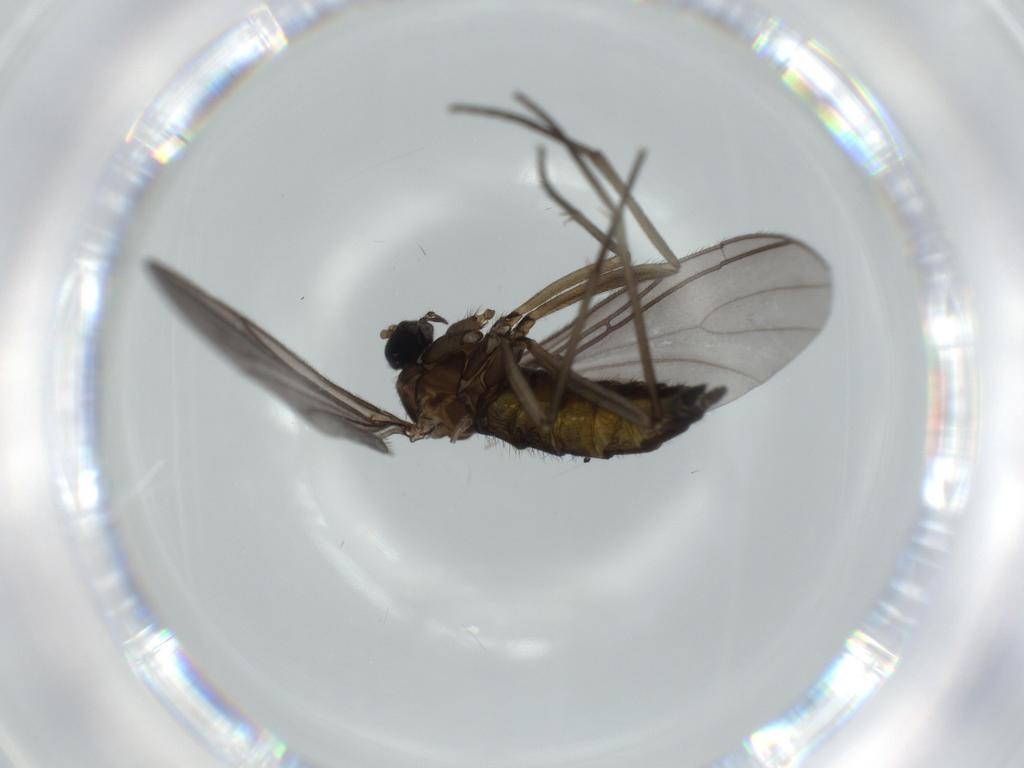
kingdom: Animalia
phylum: Arthropoda
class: Insecta
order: Diptera
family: Sciaridae
